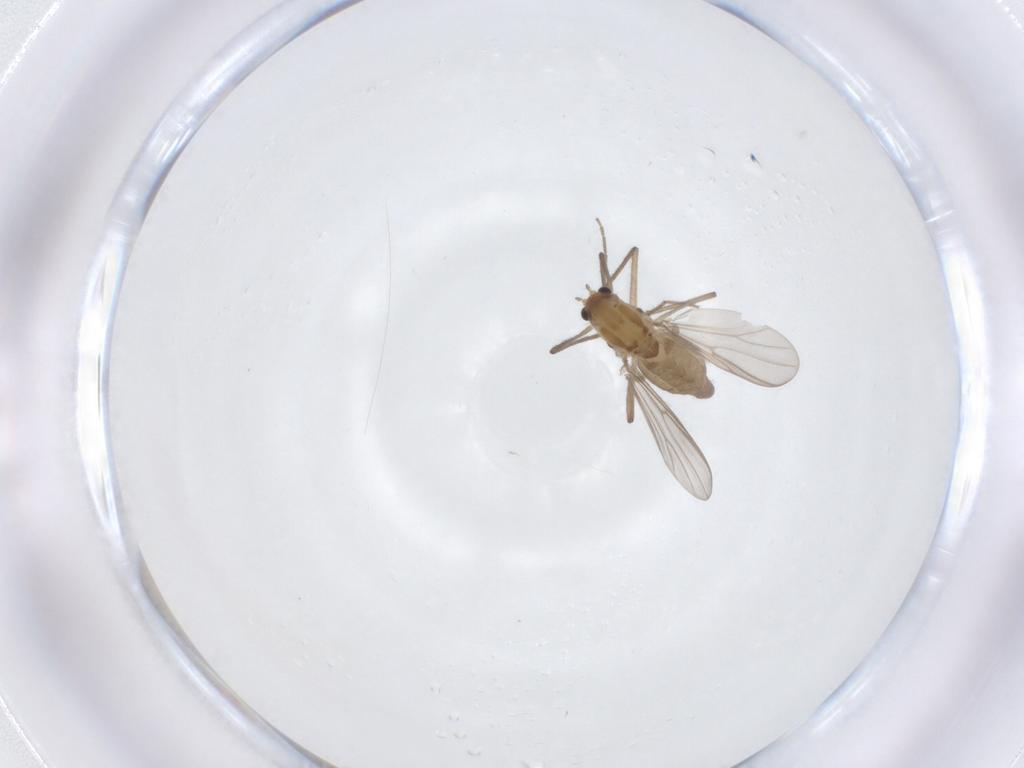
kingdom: Animalia
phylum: Arthropoda
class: Insecta
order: Diptera
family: Chironomidae
